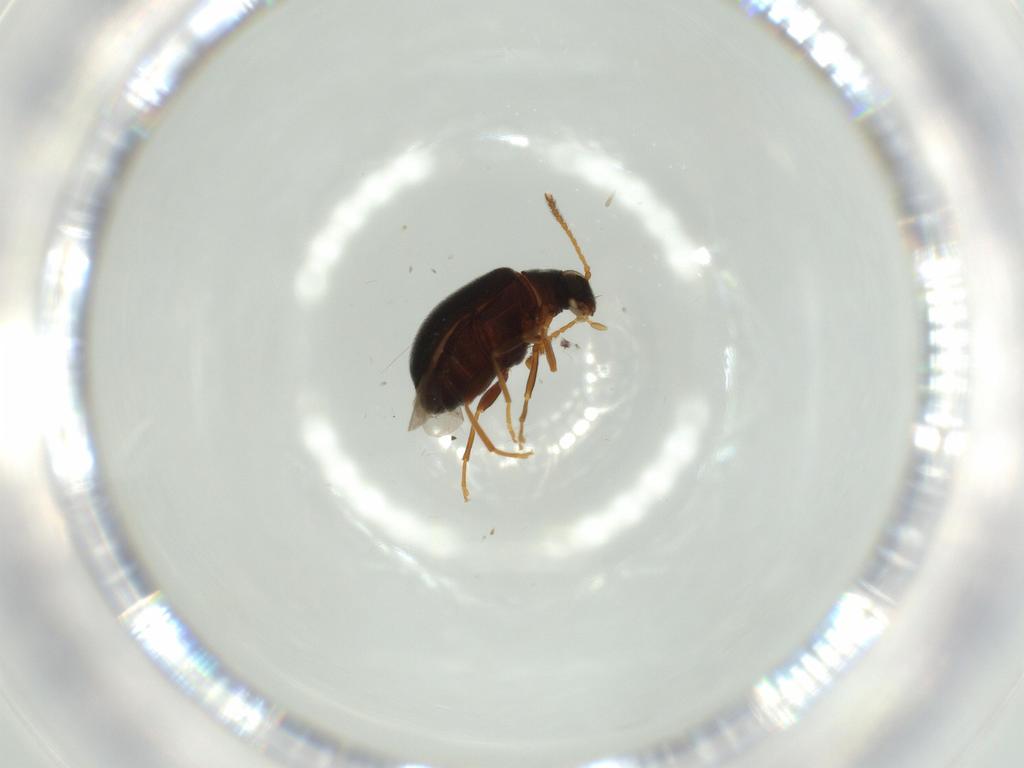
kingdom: Animalia
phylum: Arthropoda
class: Insecta
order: Coleoptera
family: Aderidae
